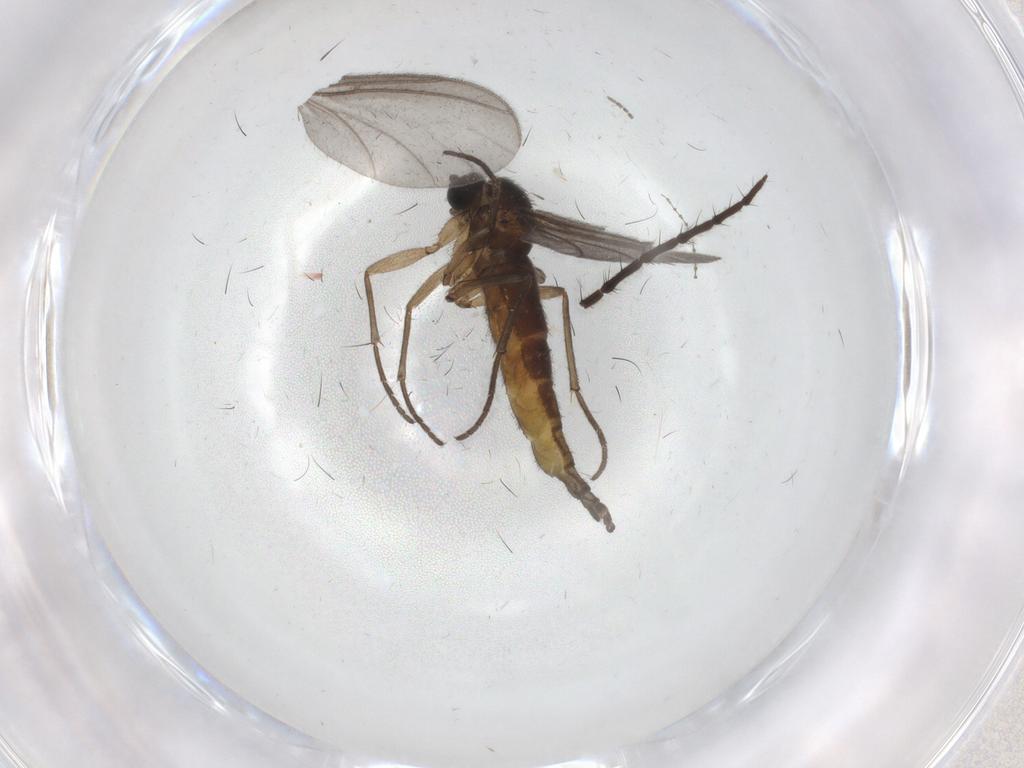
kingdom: Animalia
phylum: Arthropoda
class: Insecta
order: Diptera
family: Sciaridae
